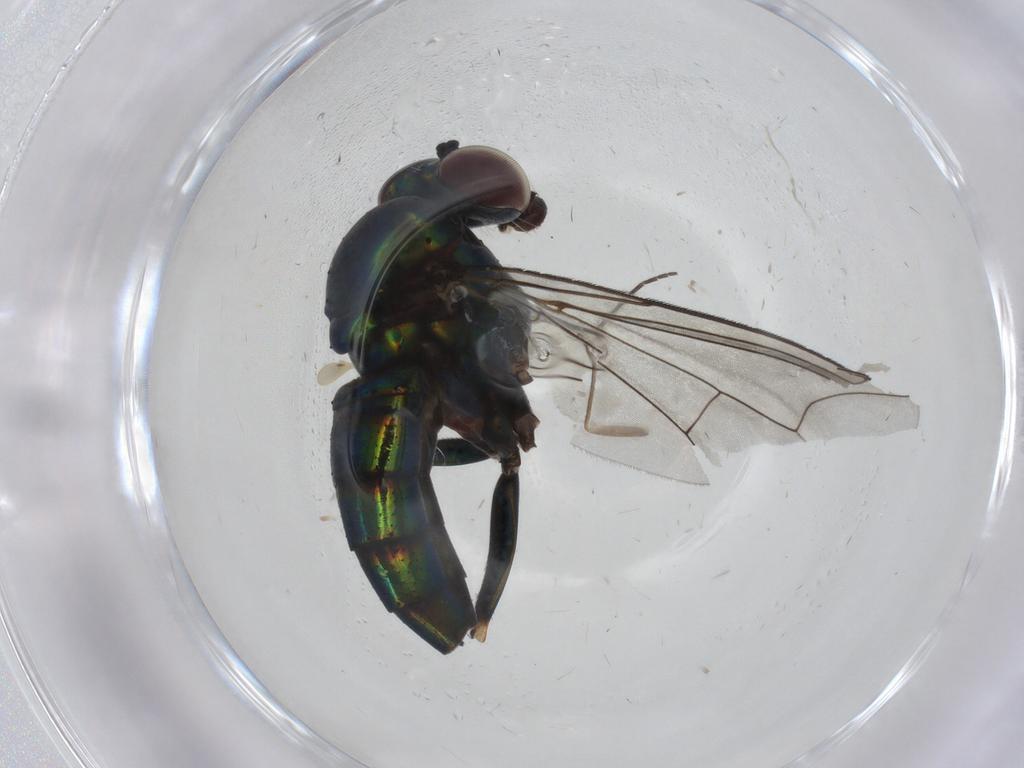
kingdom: Animalia
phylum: Arthropoda
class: Insecta
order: Diptera
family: Dolichopodidae
